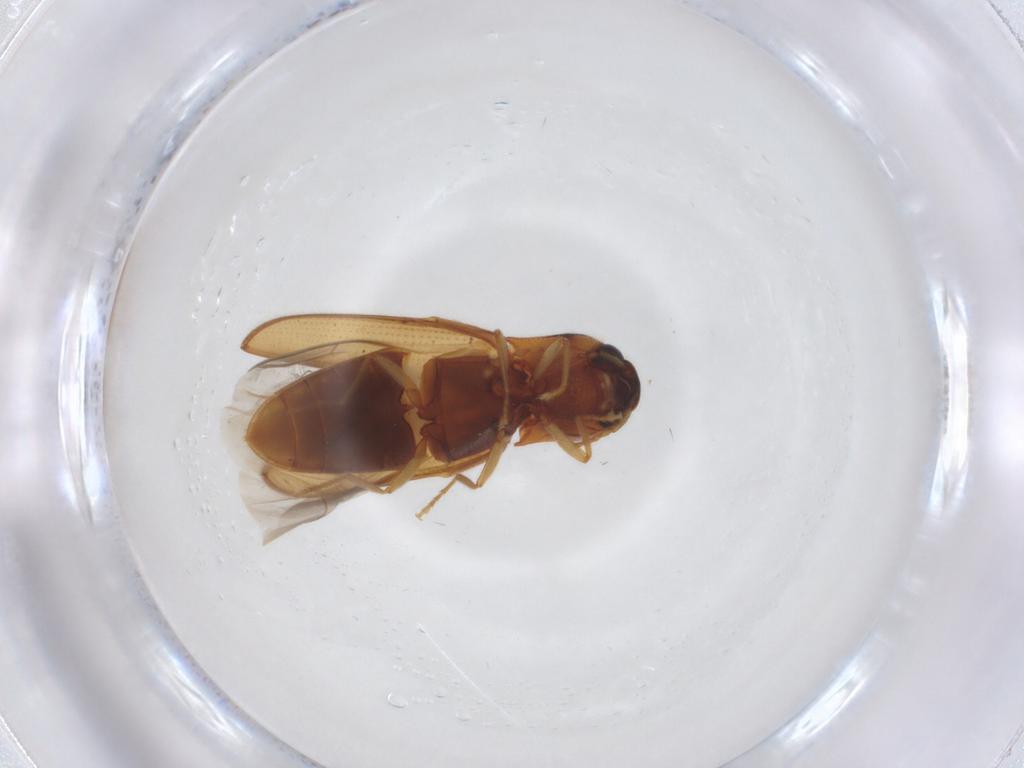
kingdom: Animalia
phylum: Arthropoda
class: Insecta
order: Coleoptera
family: Elateridae
